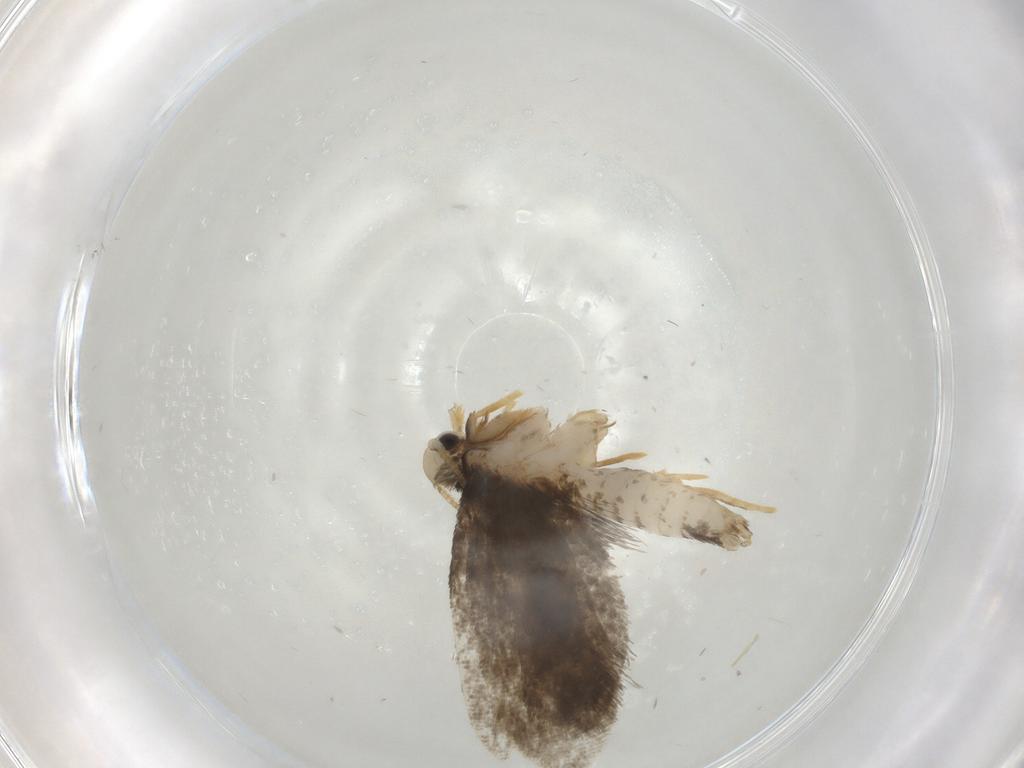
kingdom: Animalia
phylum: Arthropoda
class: Insecta
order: Lepidoptera
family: Psychidae
